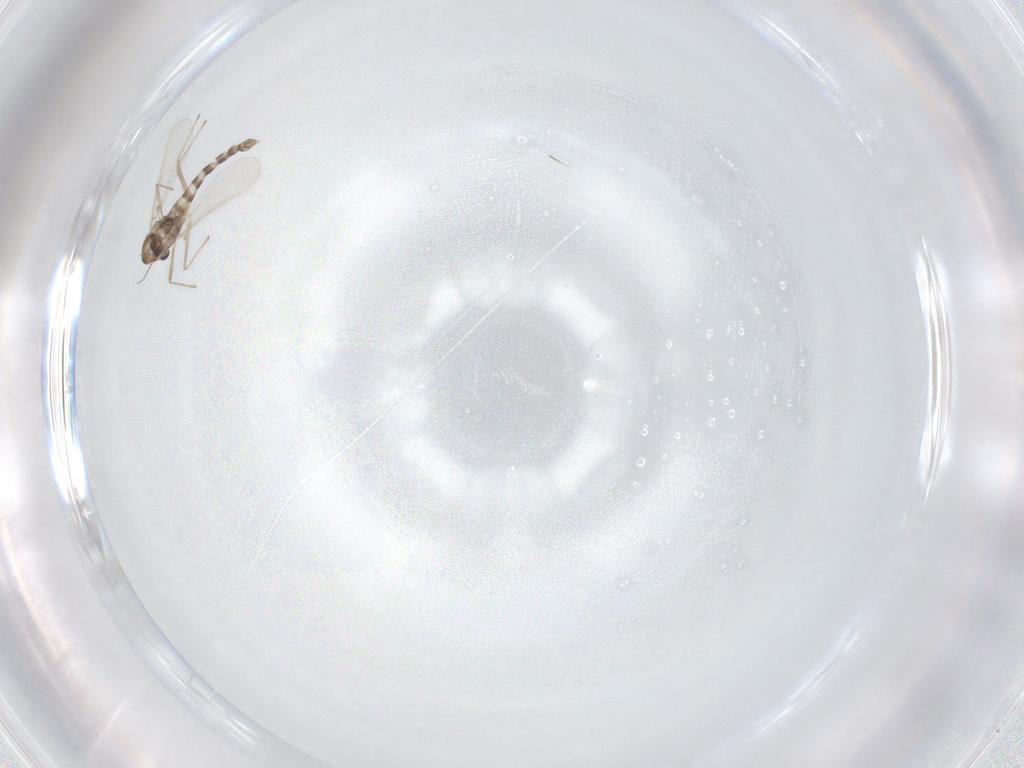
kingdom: Animalia
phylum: Arthropoda
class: Insecta
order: Diptera
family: Chironomidae
